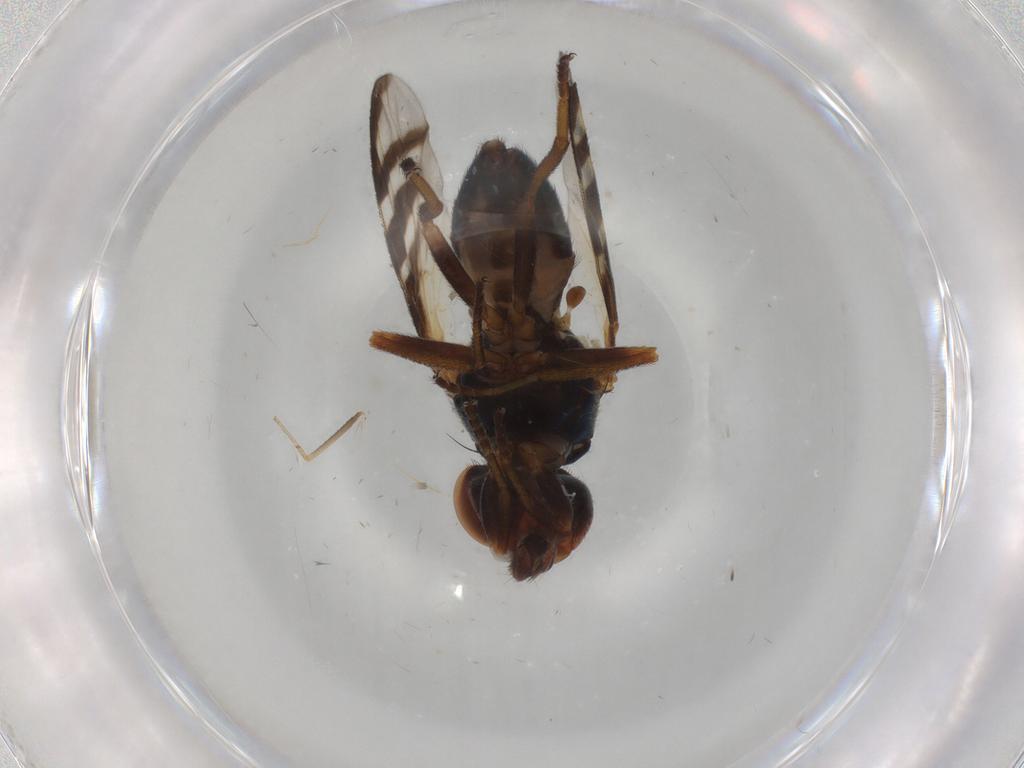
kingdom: Animalia
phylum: Arthropoda
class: Insecta
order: Diptera
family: Platystomatidae
